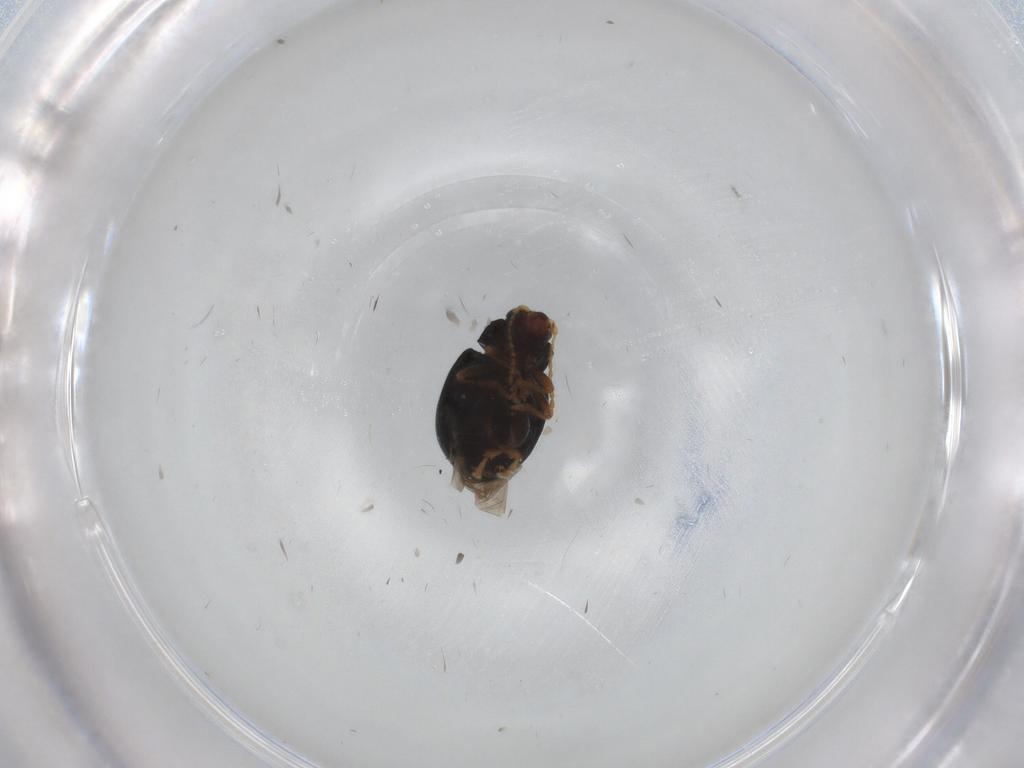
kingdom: Animalia
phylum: Arthropoda
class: Insecta
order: Coleoptera
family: Chrysomelidae
